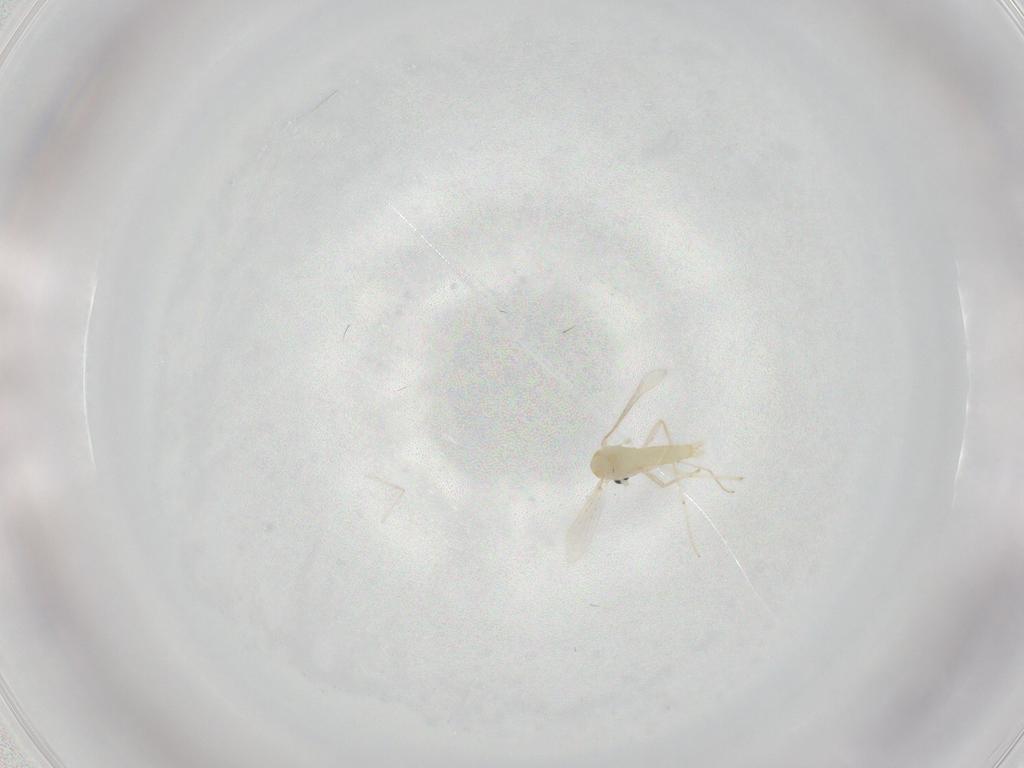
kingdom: Animalia
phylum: Arthropoda
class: Insecta
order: Diptera
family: Chironomidae
